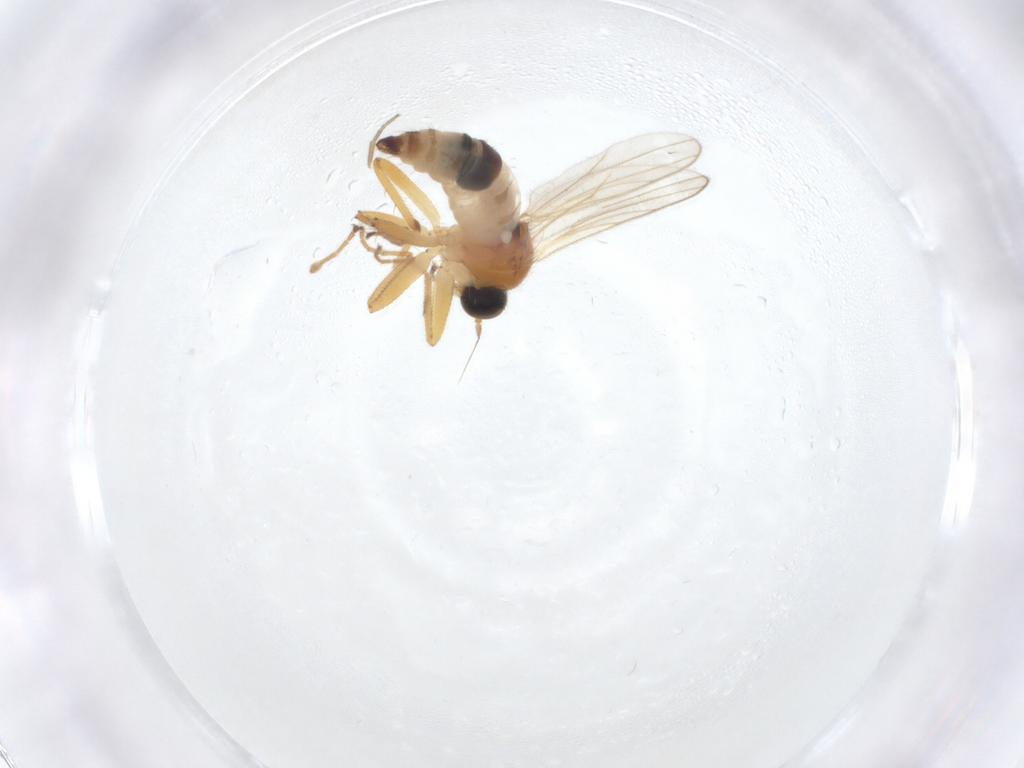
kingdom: Animalia
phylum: Arthropoda
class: Insecta
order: Diptera
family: Hybotidae
